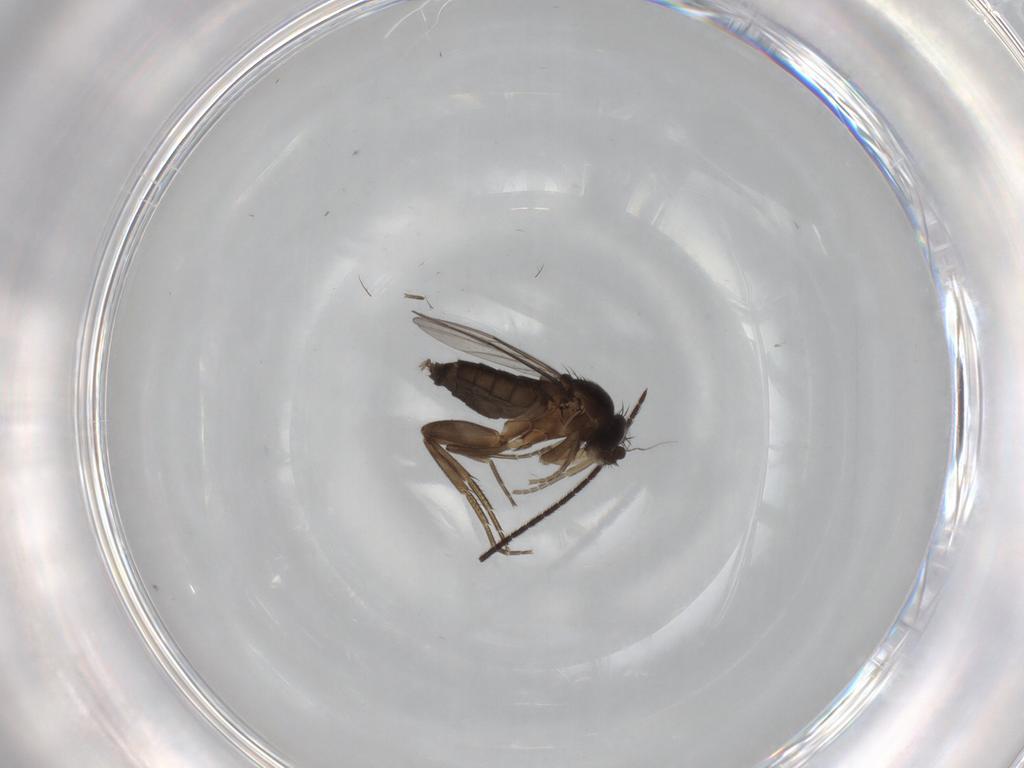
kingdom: Animalia
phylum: Arthropoda
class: Insecta
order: Diptera
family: Phoridae
